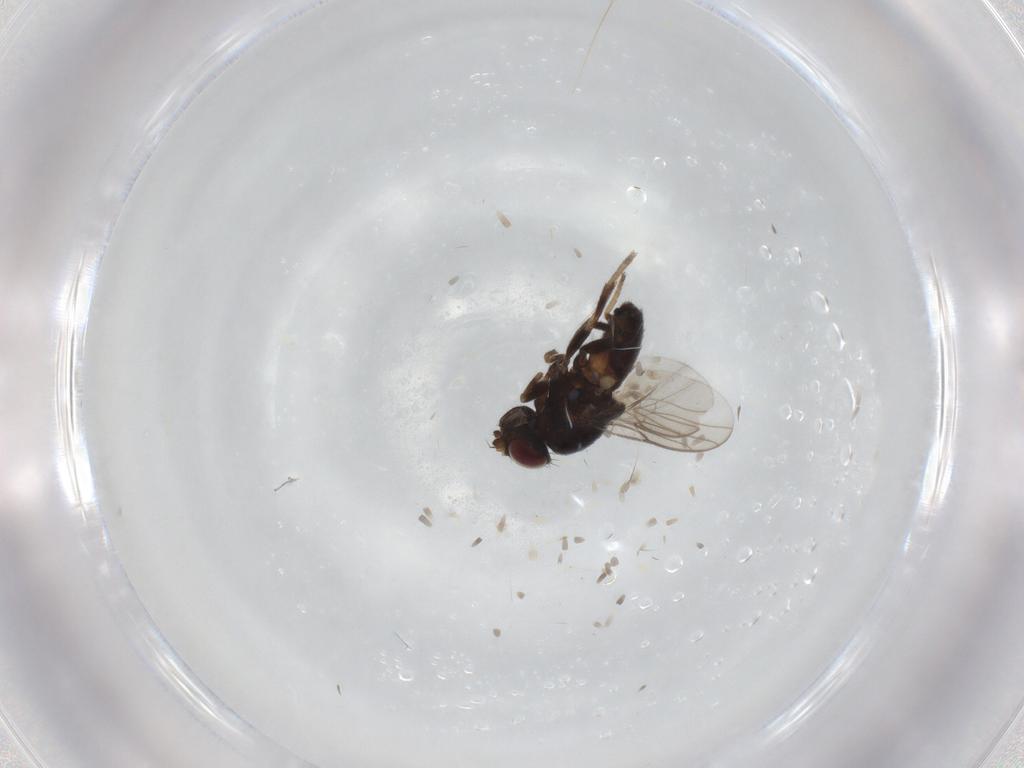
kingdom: Animalia
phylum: Arthropoda
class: Insecta
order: Diptera
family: Chloropidae
